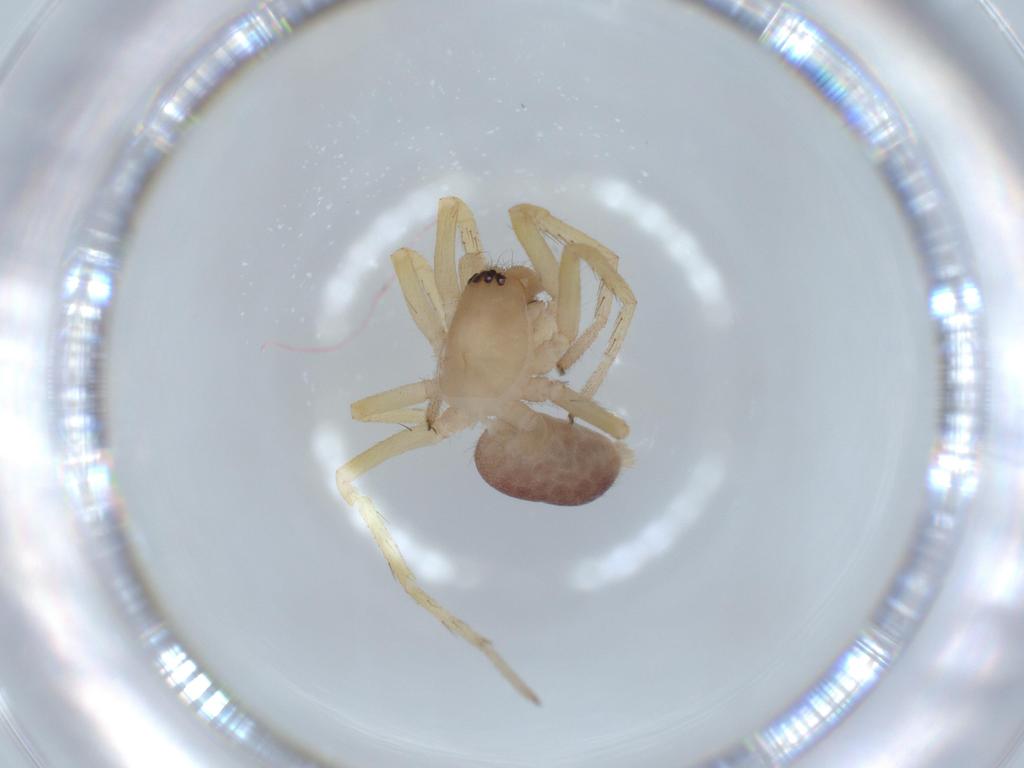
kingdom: Animalia
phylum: Arthropoda
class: Arachnida
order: Araneae
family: Corinnidae
